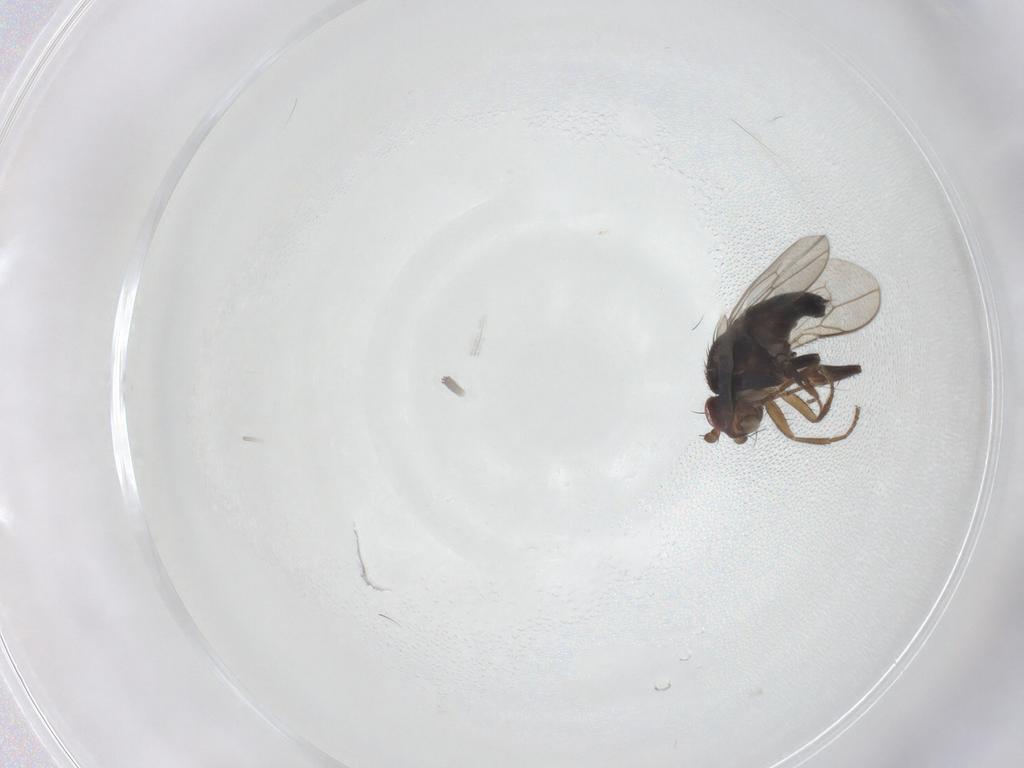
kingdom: Animalia
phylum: Arthropoda
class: Insecta
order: Diptera
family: Sphaeroceridae
